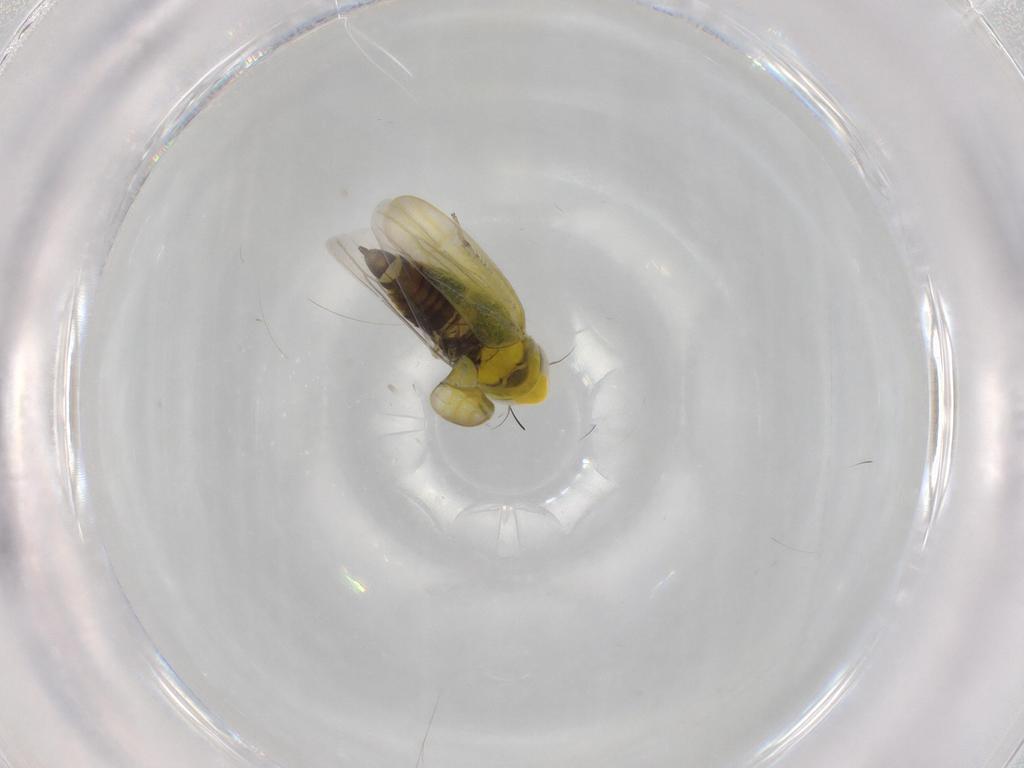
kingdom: Animalia
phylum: Arthropoda
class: Insecta
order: Hemiptera
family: Cicadellidae
